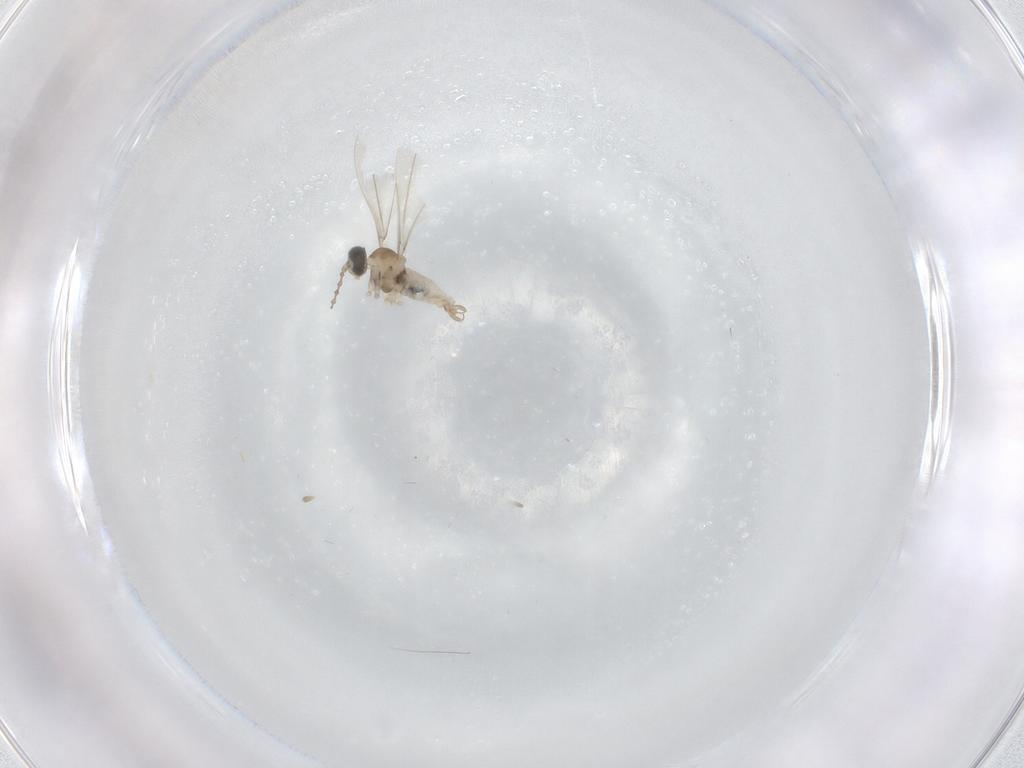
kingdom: Animalia
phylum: Arthropoda
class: Insecta
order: Diptera
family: Cecidomyiidae
